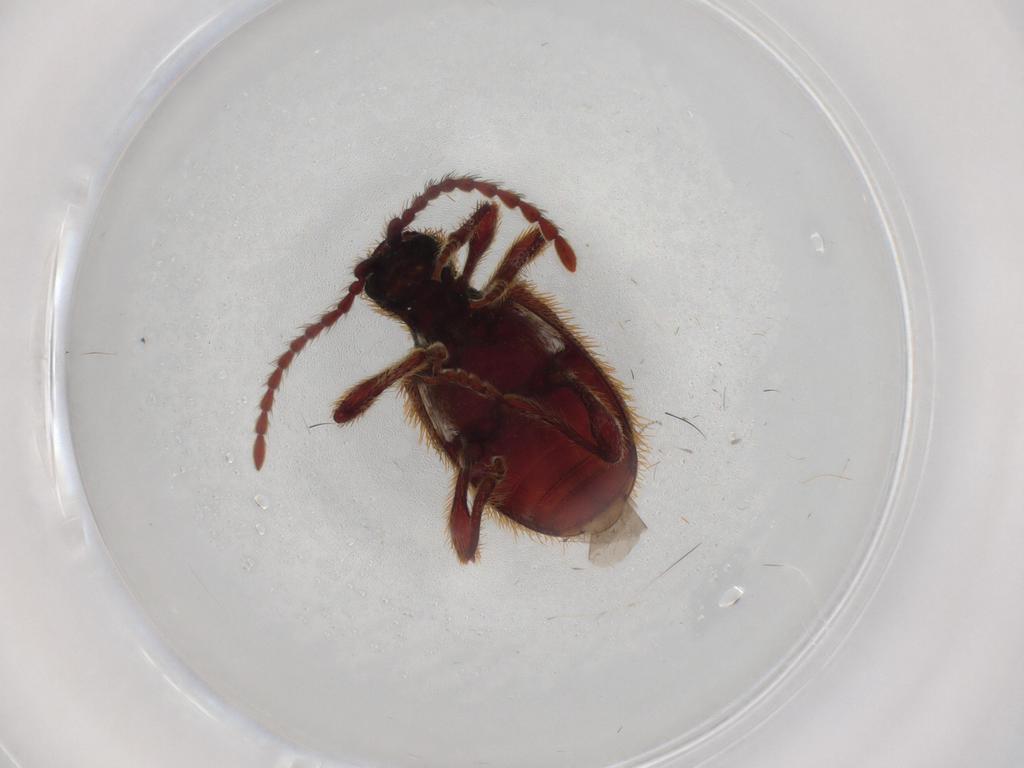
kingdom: Animalia
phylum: Arthropoda
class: Insecta
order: Coleoptera
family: Ptinidae
